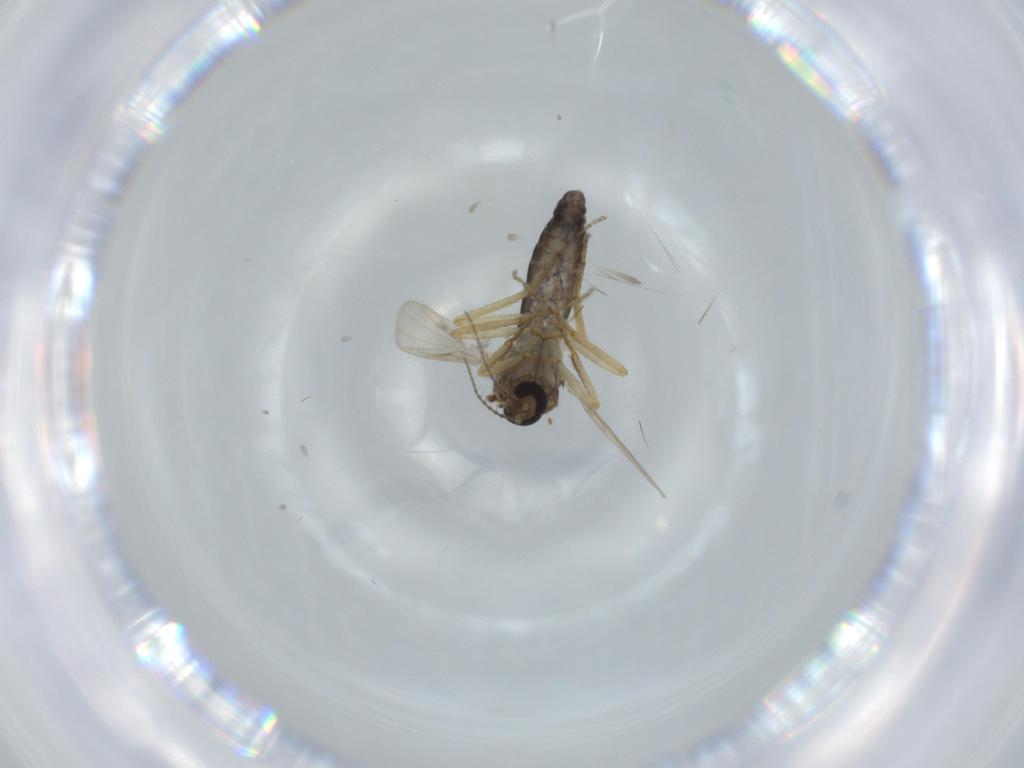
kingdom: Animalia
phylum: Arthropoda
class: Insecta
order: Diptera
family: Ceratopogonidae
